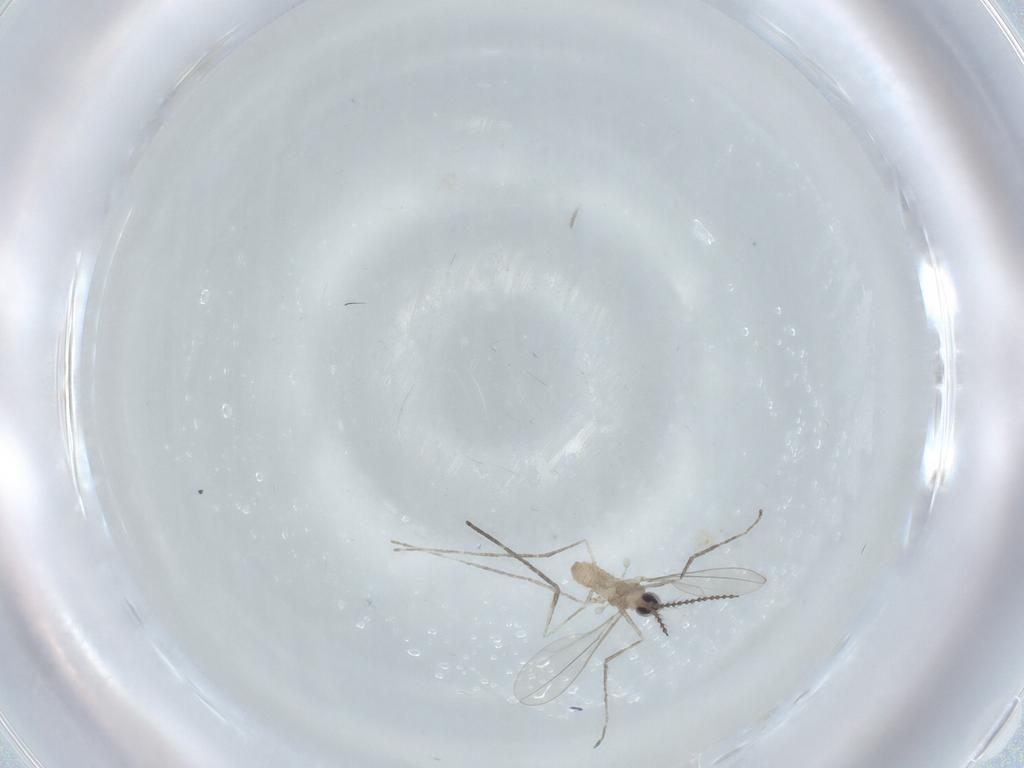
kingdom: Animalia
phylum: Arthropoda
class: Insecta
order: Diptera
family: Cecidomyiidae
